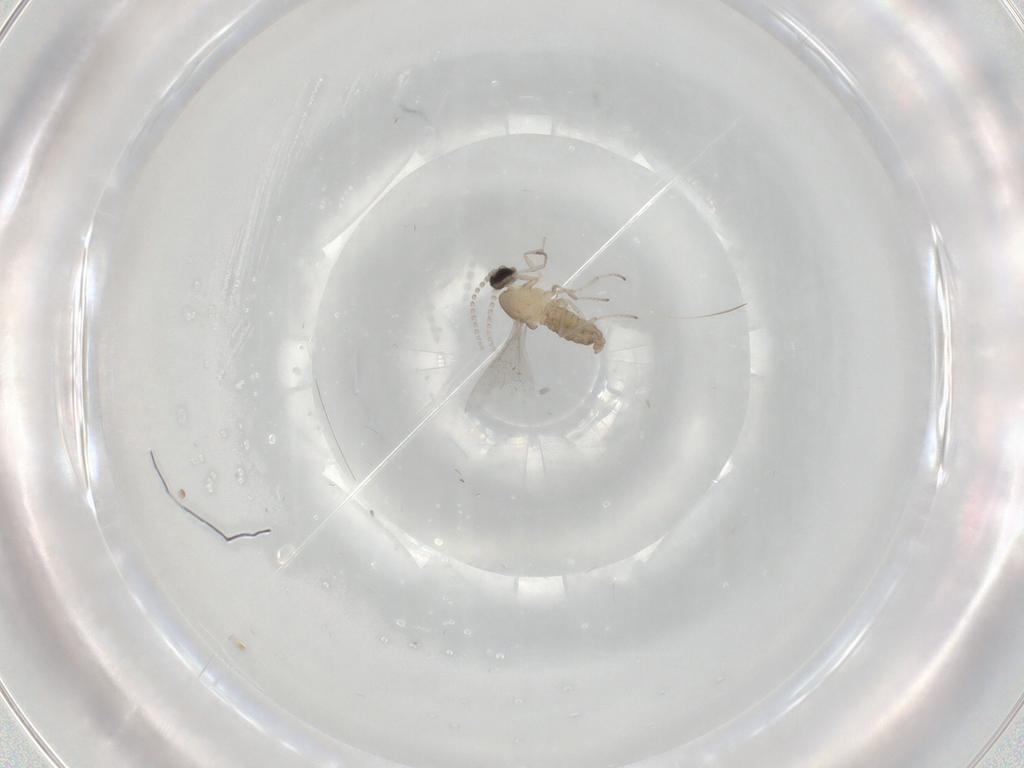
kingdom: Animalia
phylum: Arthropoda
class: Insecta
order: Diptera
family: Cecidomyiidae
